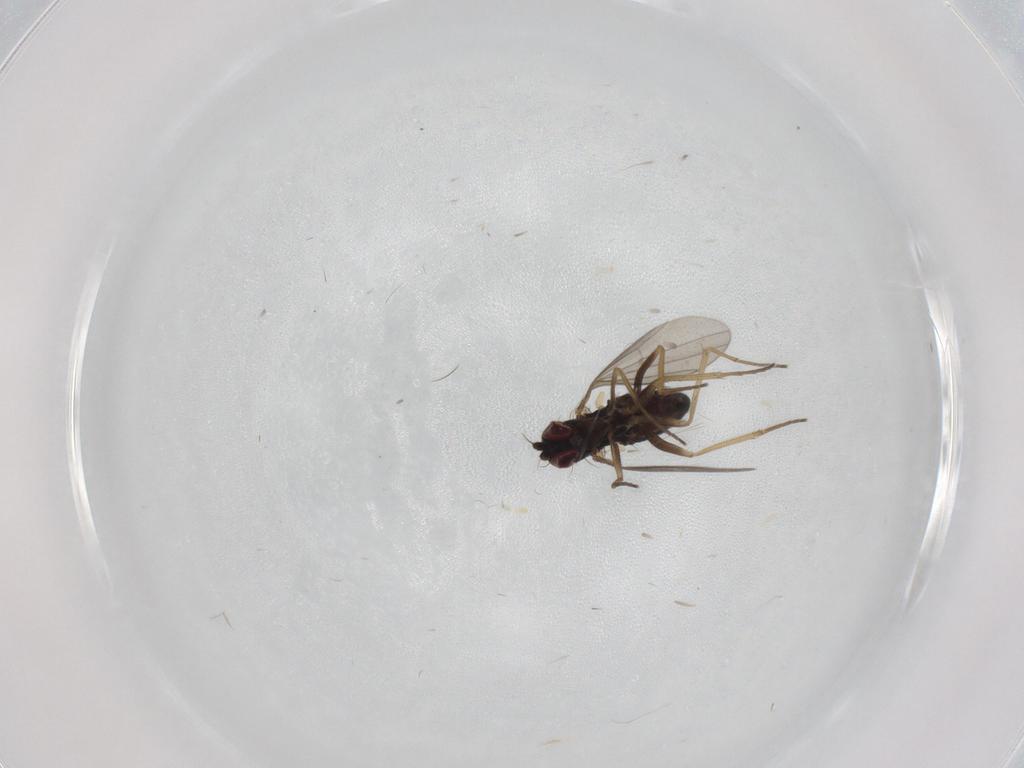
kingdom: Animalia
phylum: Arthropoda
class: Insecta
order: Diptera
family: Dolichopodidae
